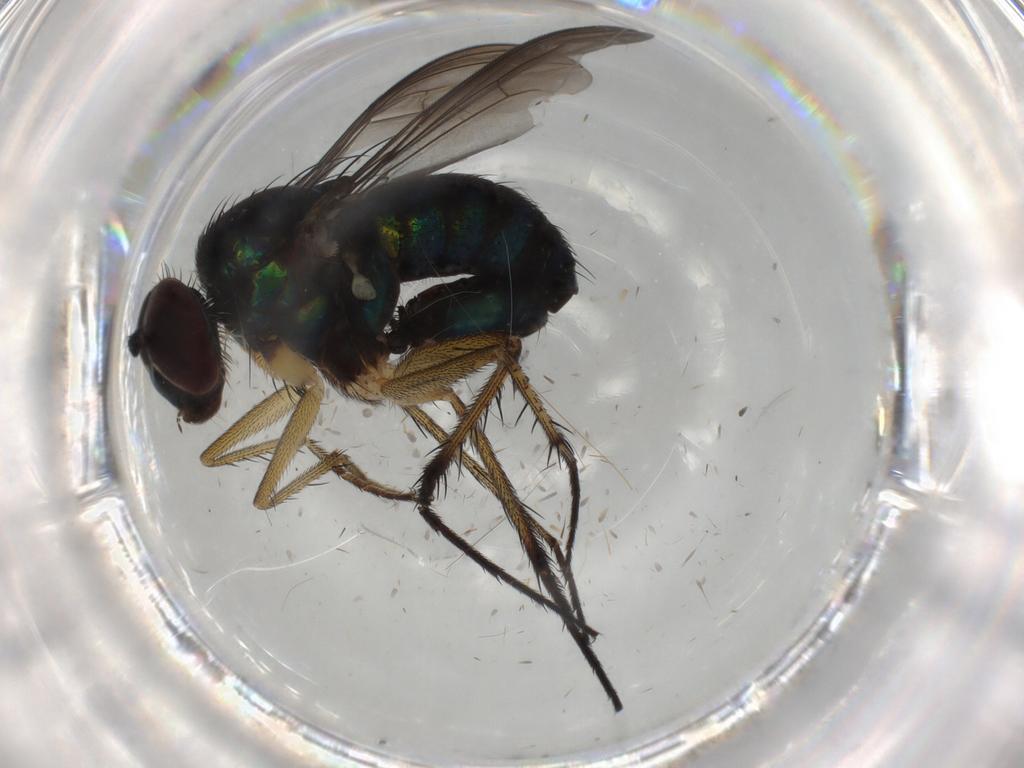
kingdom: Animalia
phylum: Arthropoda
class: Insecta
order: Diptera
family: Dolichopodidae
